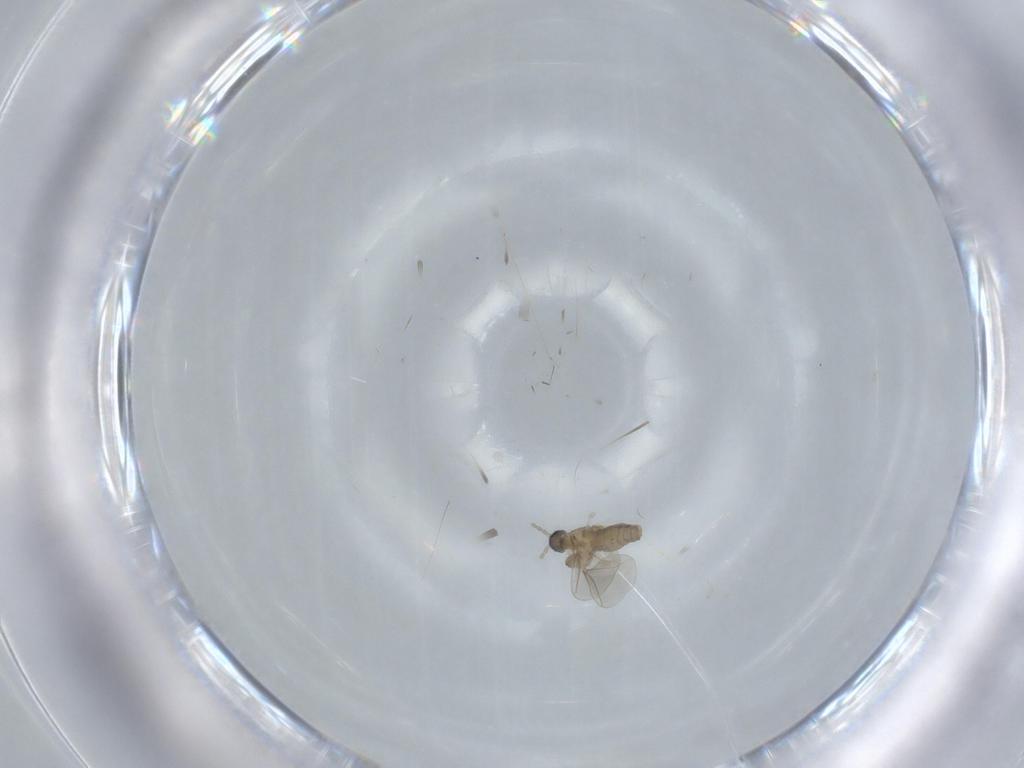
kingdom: Animalia
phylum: Arthropoda
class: Insecta
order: Diptera
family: Cecidomyiidae
